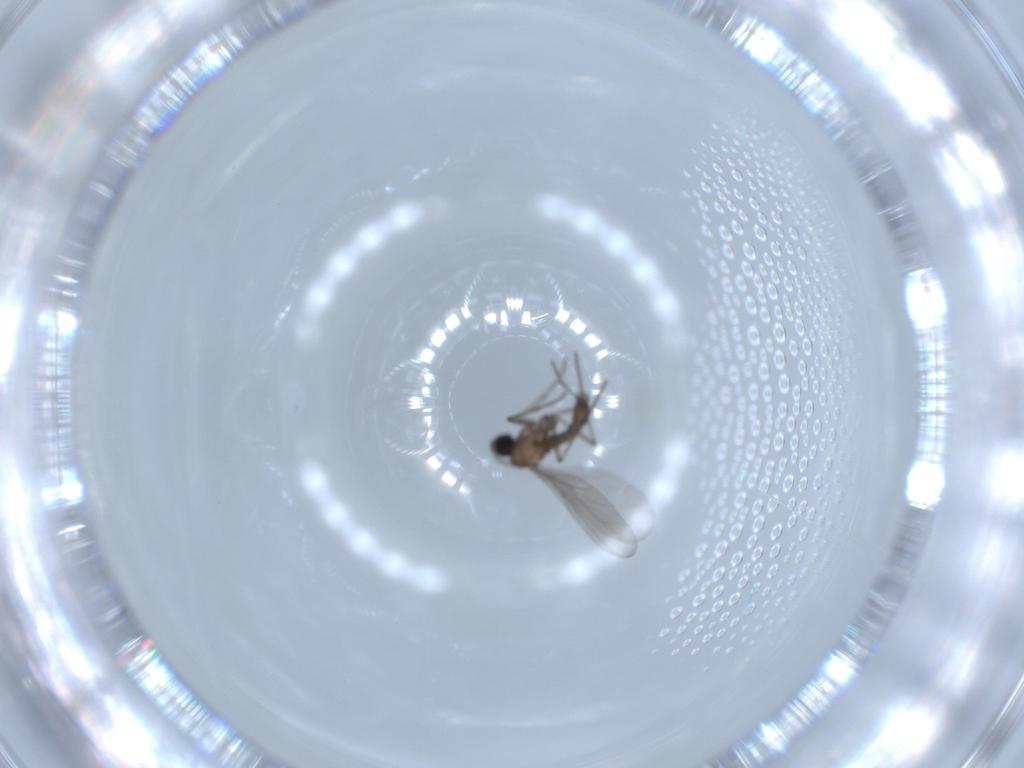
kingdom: Animalia
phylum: Arthropoda
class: Insecta
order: Diptera
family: Sciaridae
